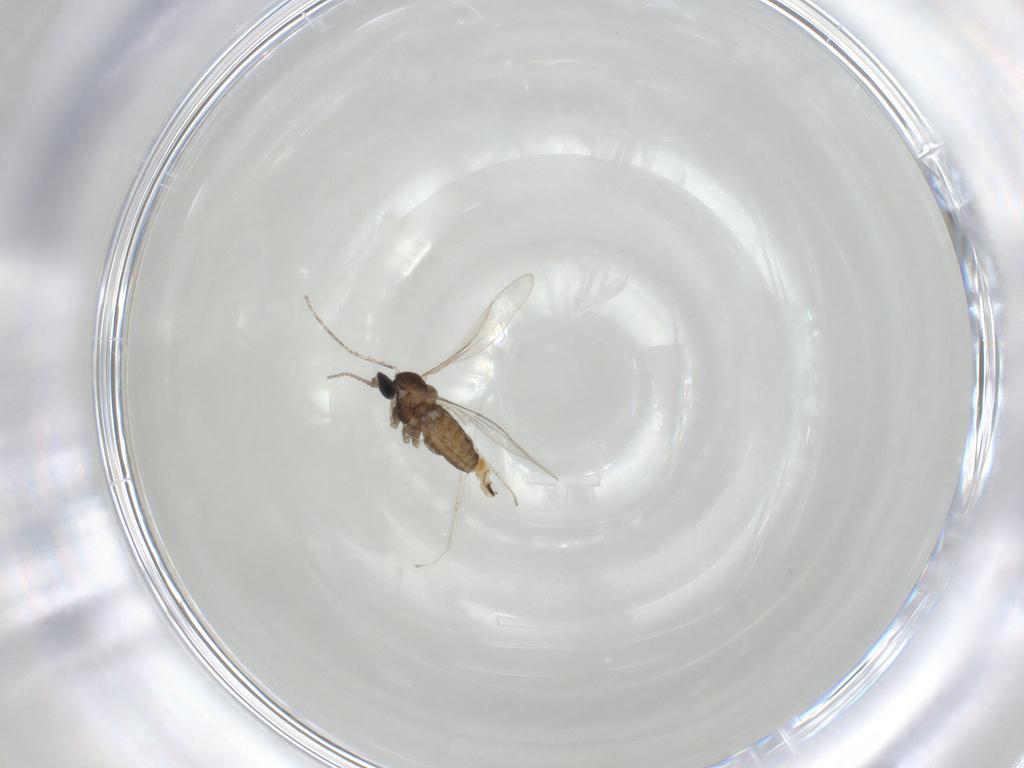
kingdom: Animalia
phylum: Arthropoda
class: Insecta
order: Diptera
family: Cecidomyiidae
